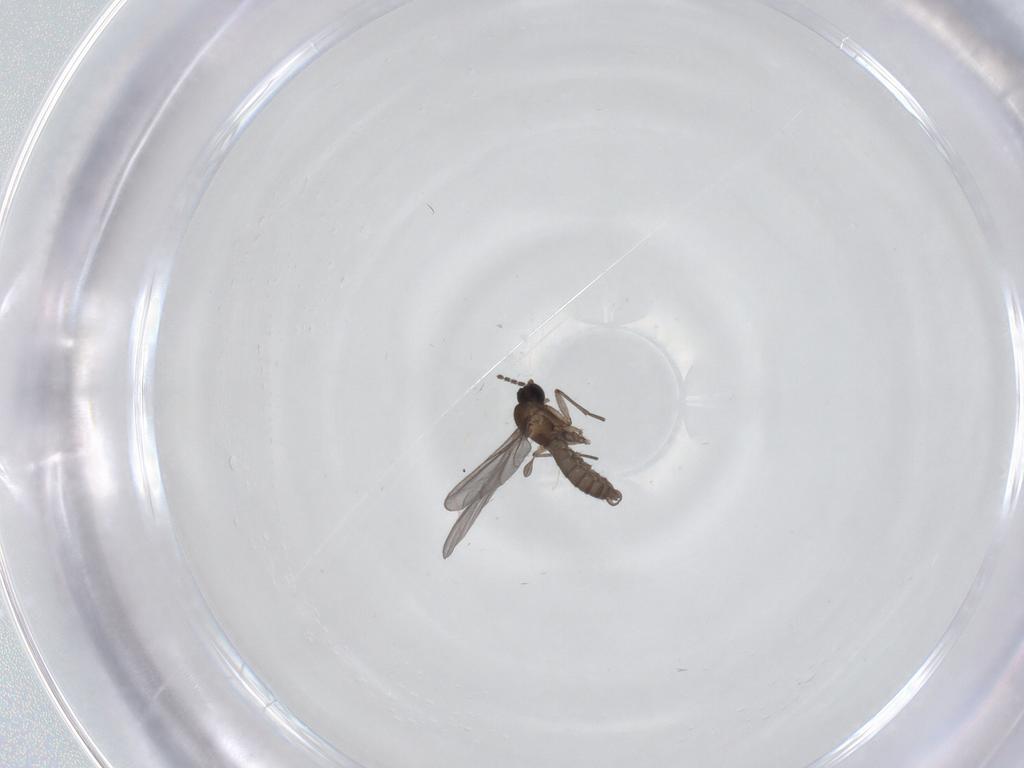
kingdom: Animalia
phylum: Arthropoda
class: Insecta
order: Diptera
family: Sciaridae
